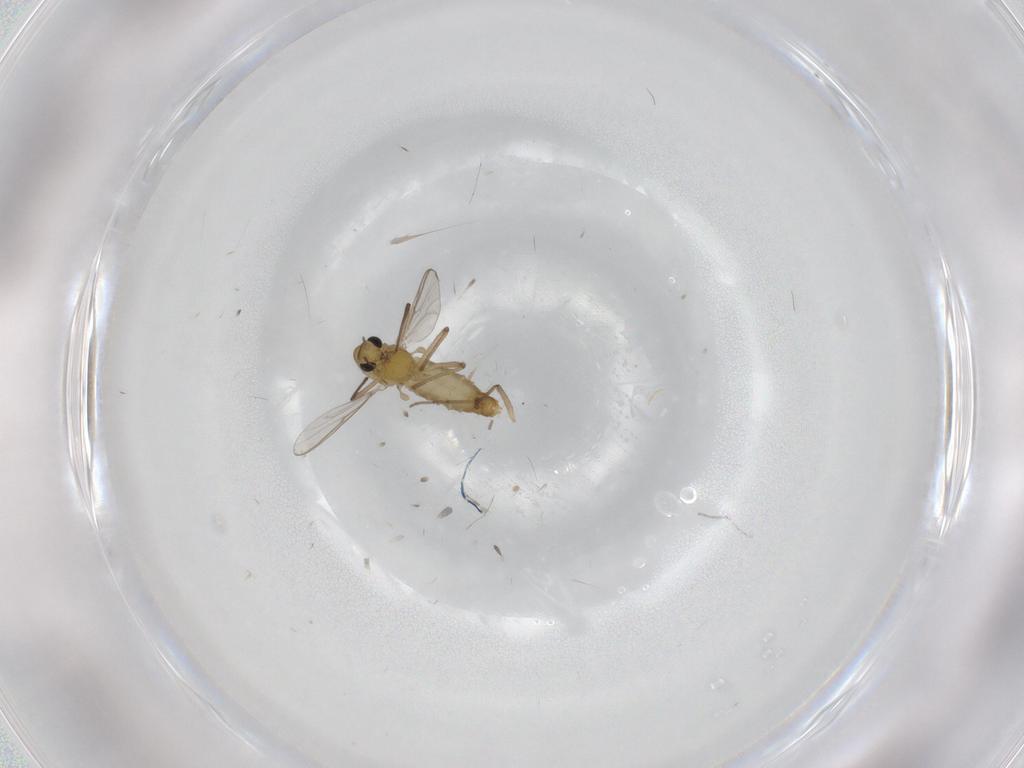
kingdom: Animalia
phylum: Arthropoda
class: Insecta
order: Diptera
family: Chironomidae
